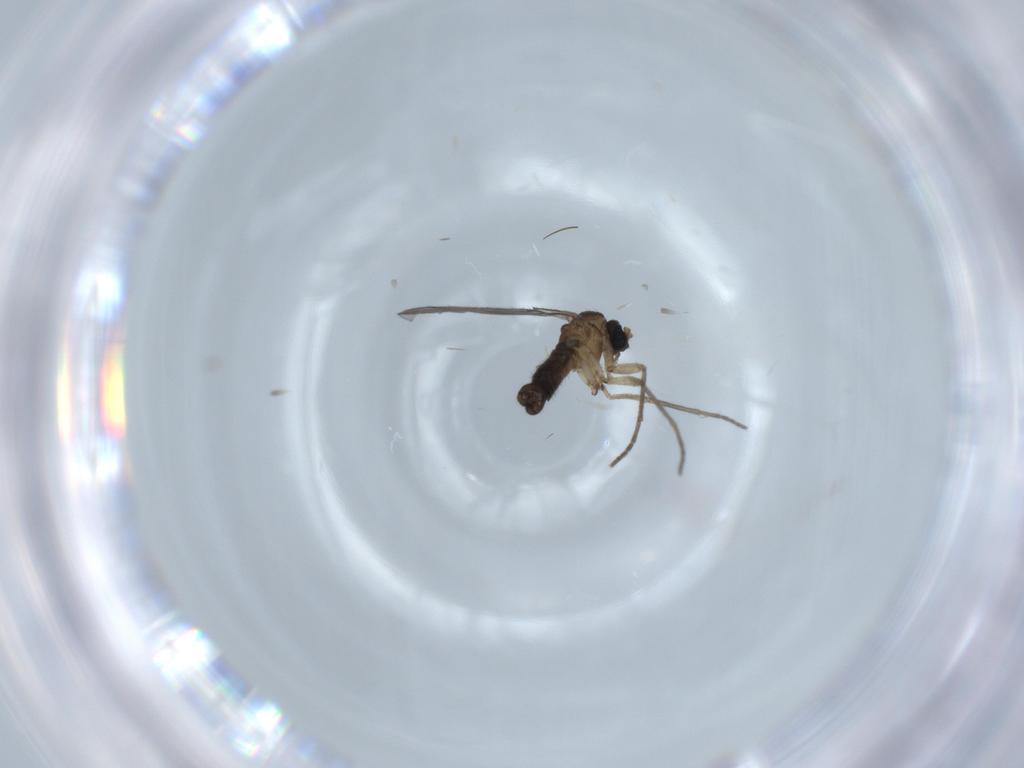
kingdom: Animalia
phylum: Arthropoda
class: Insecta
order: Diptera
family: Sciaridae
